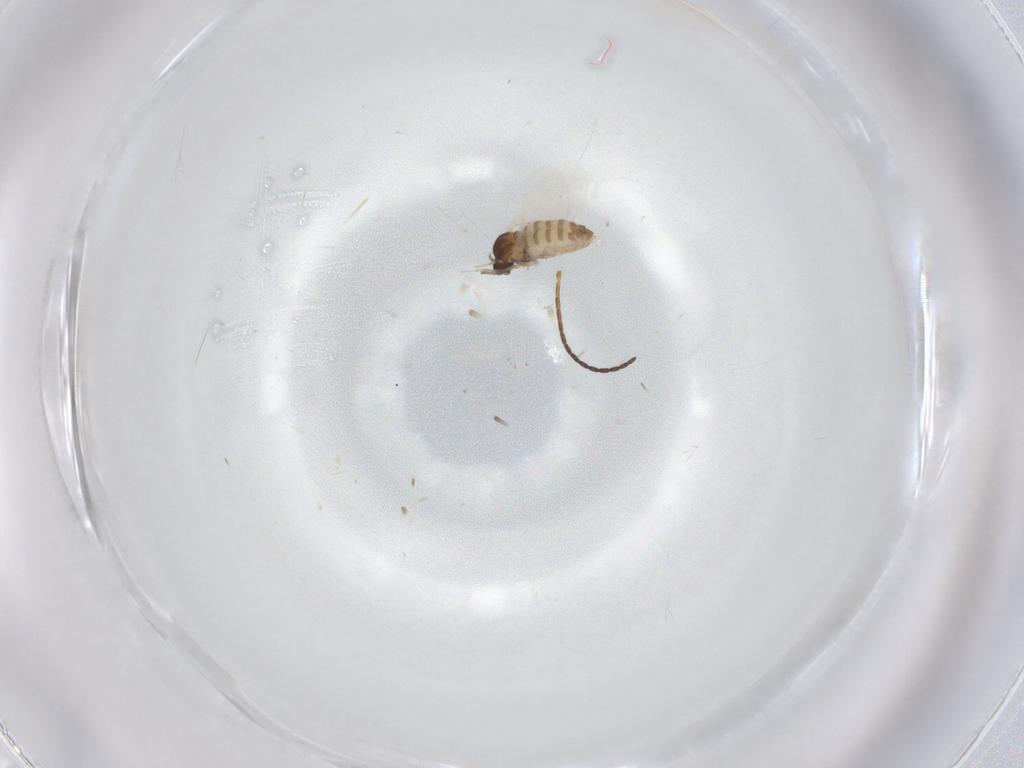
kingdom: Animalia
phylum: Arthropoda
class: Insecta
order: Diptera
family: Cecidomyiidae
